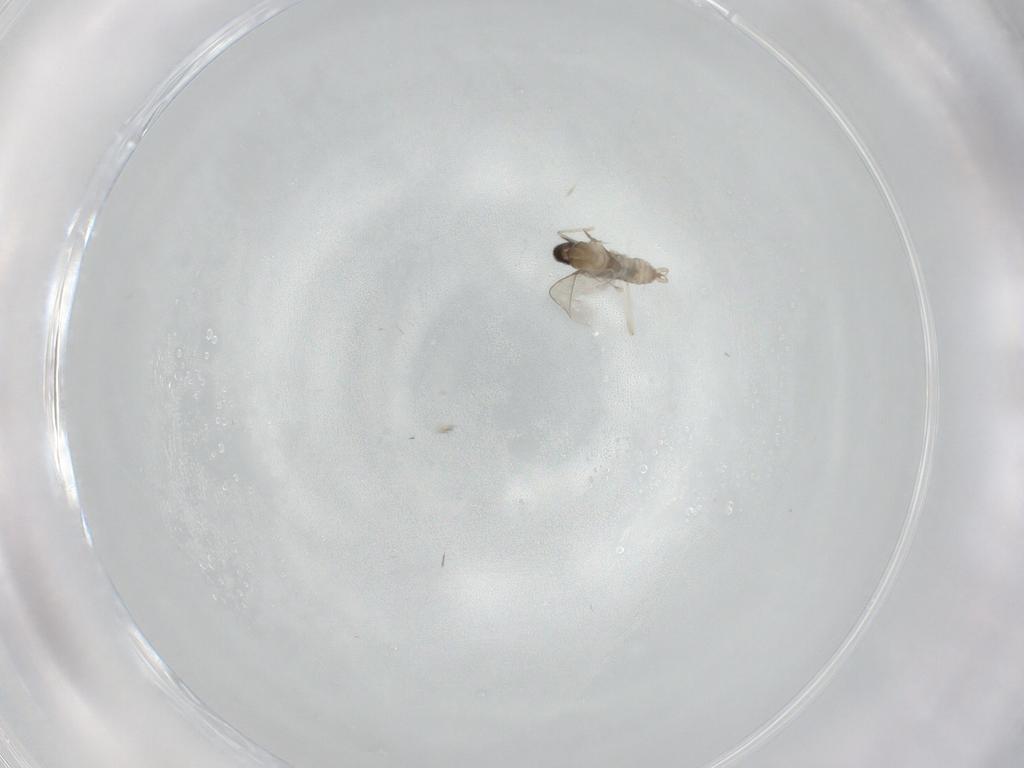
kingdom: Animalia
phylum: Arthropoda
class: Insecta
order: Diptera
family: Cecidomyiidae
